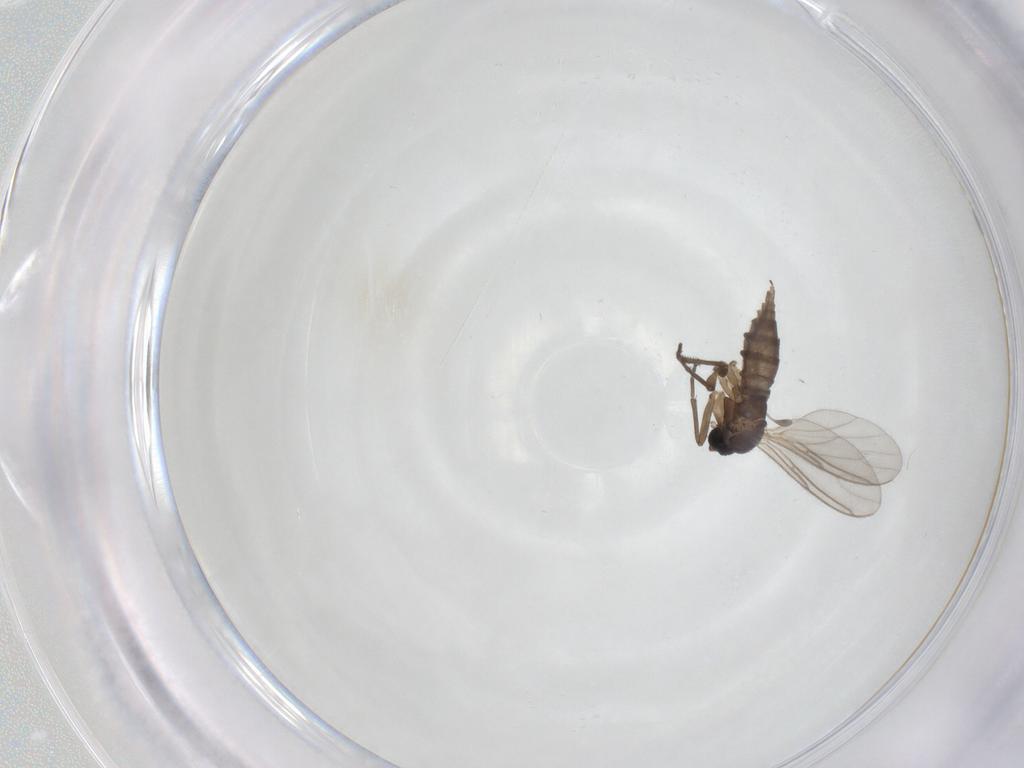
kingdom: Animalia
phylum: Arthropoda
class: Insecta
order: Diptera
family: Sciaridae
